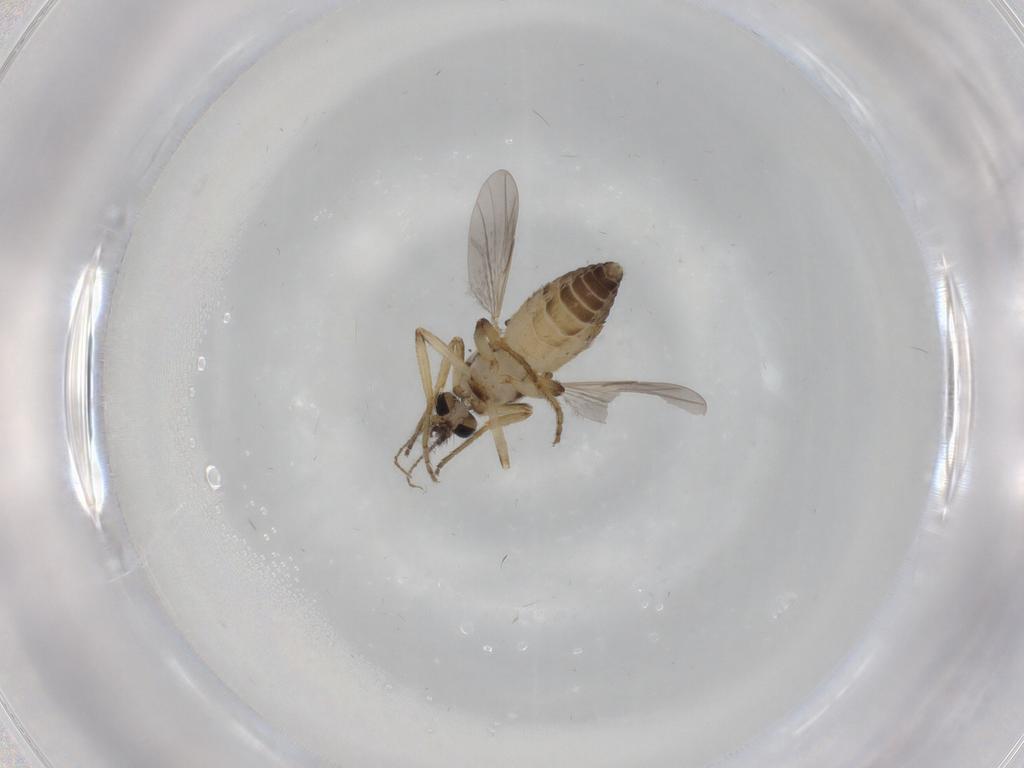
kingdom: Animalia
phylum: Arthropoda
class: Insecta
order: Diptera
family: Ceratopogonidae
